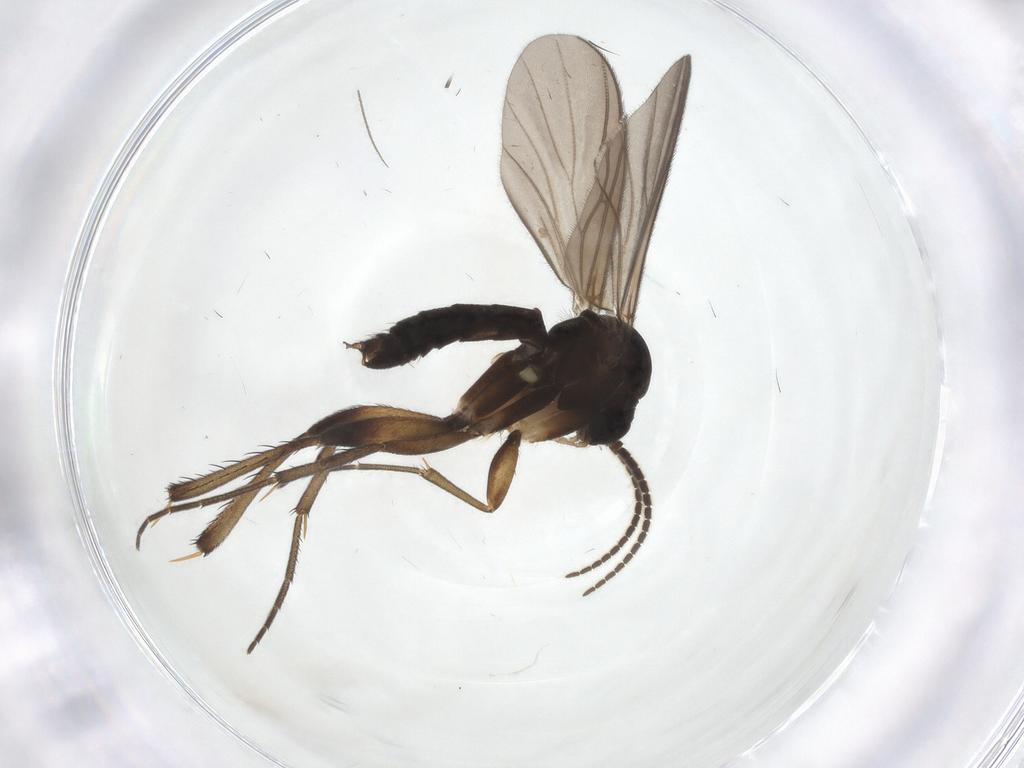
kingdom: Animalia
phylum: Arthropoda
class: Insecta
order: Diptera
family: Mycetophilidae
